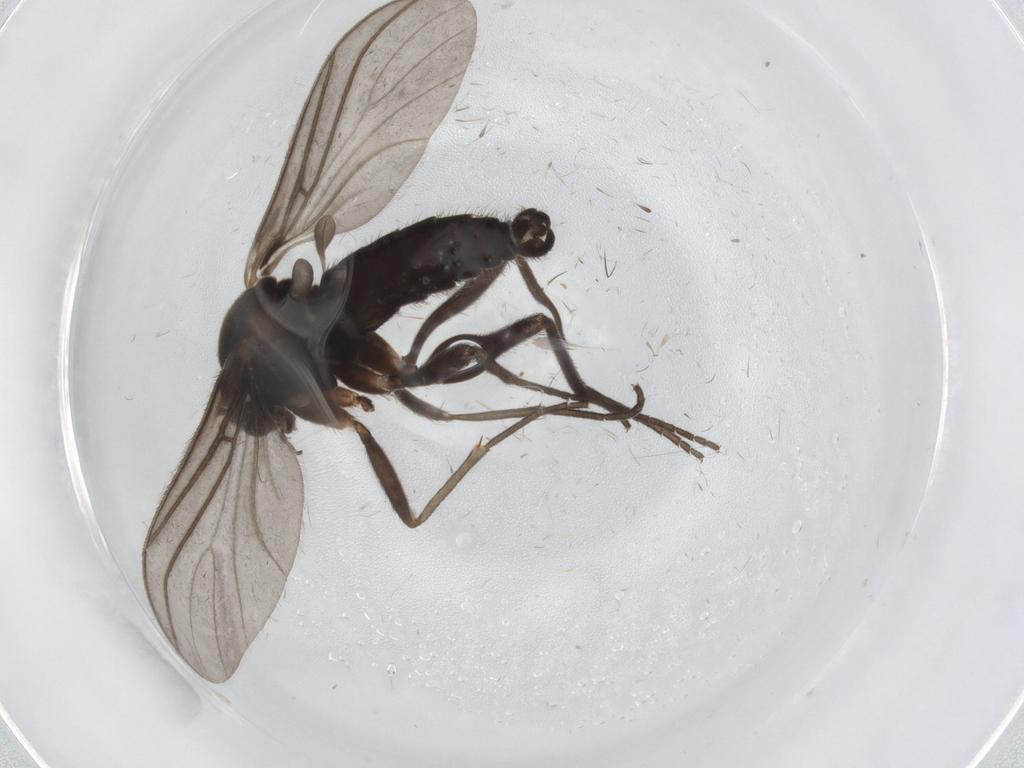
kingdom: Animalia
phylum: Arthropoda
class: Insecta
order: Diptera
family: Sciaridae
